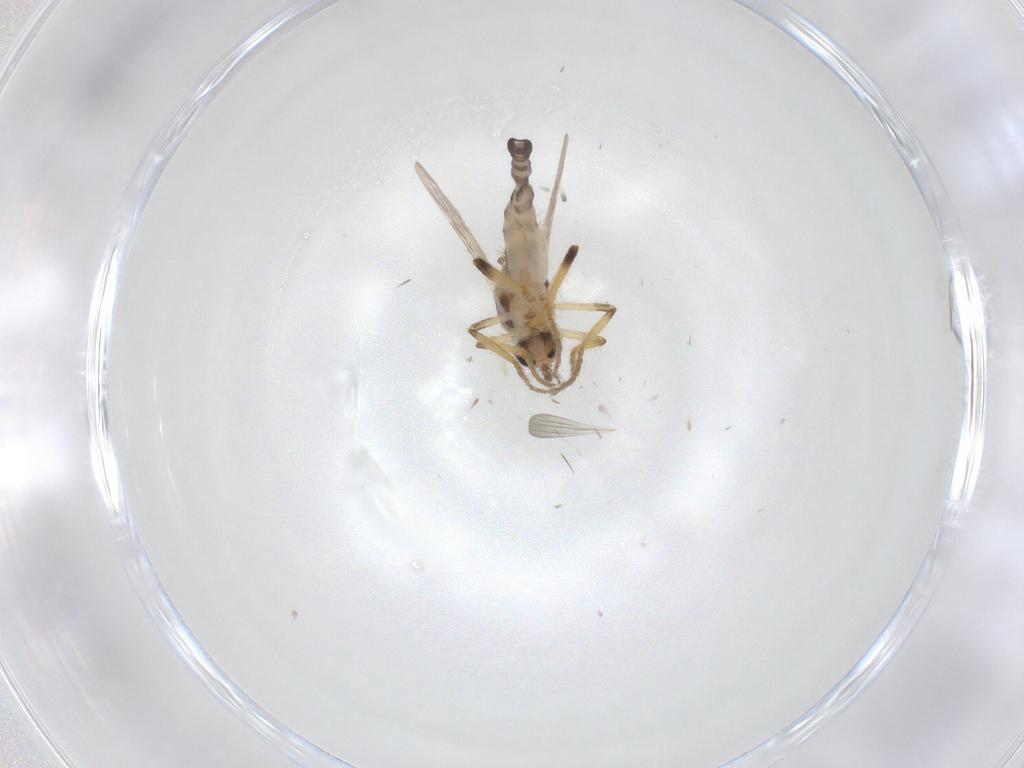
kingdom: Animalia
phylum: Arthropoda
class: Insecta
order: Diptera
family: Ceratopogonidae
